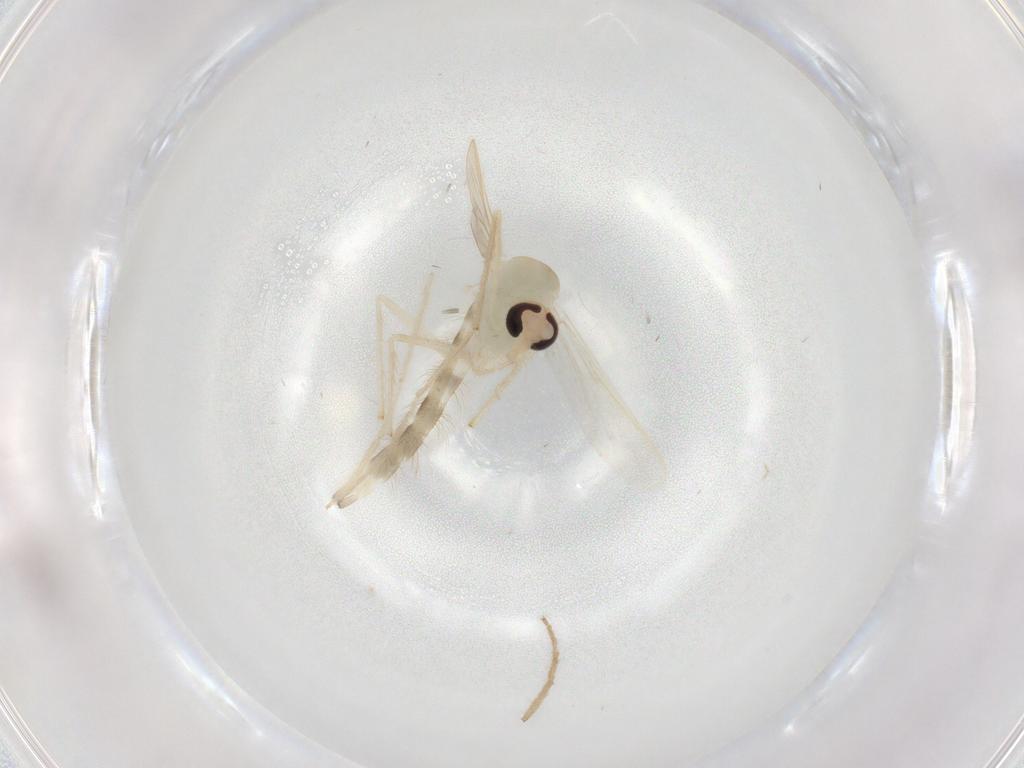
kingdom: Animalia
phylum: Arthropoda
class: Insecta
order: Diptera
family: Chironomidae
